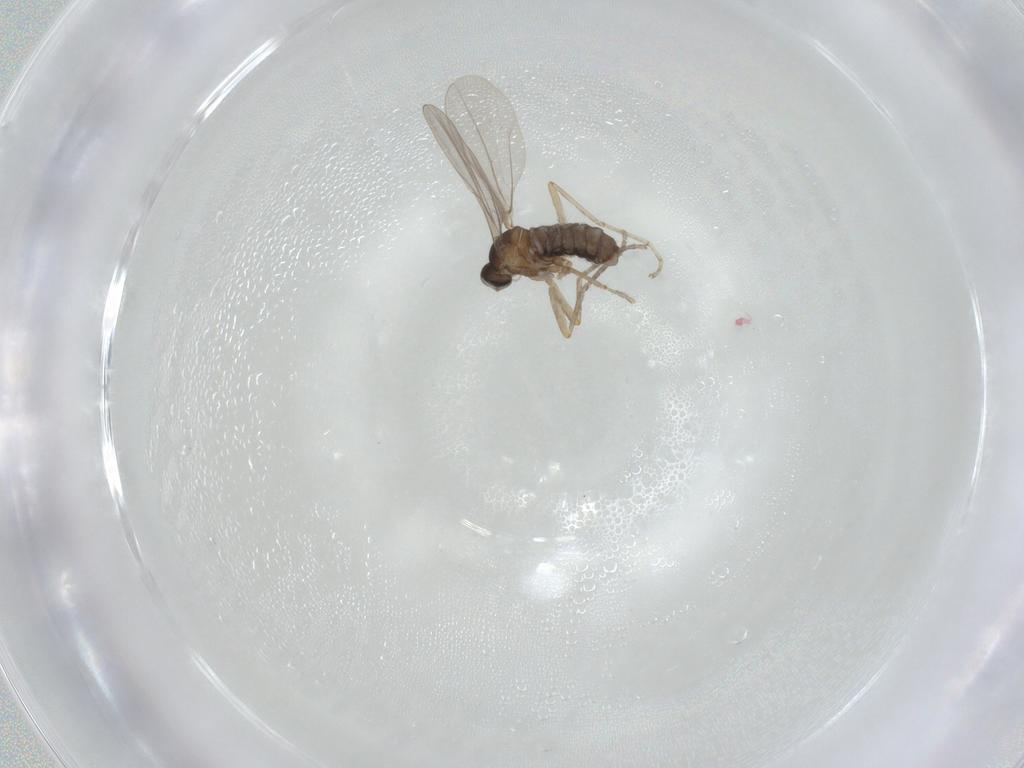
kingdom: Animalia
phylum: Arthropoda
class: Insecta
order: Diptera
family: Cecidomyiidae
